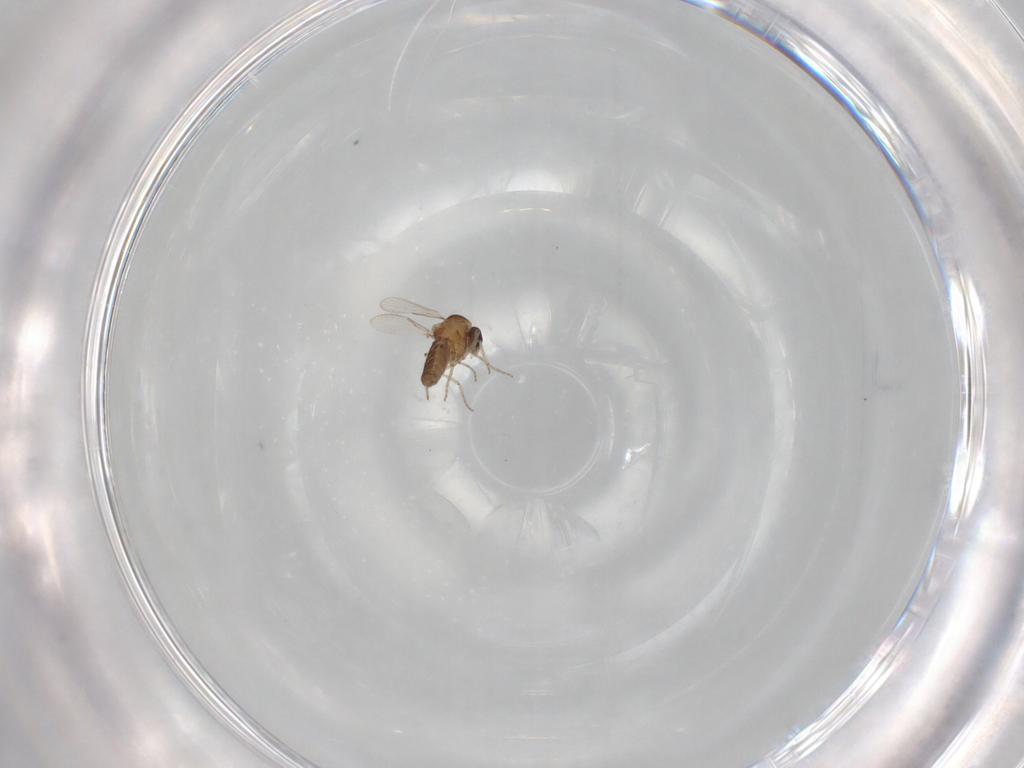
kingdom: Animalia
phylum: Arthropoda
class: Insecta
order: Diptera
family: Ceratopogonidae
